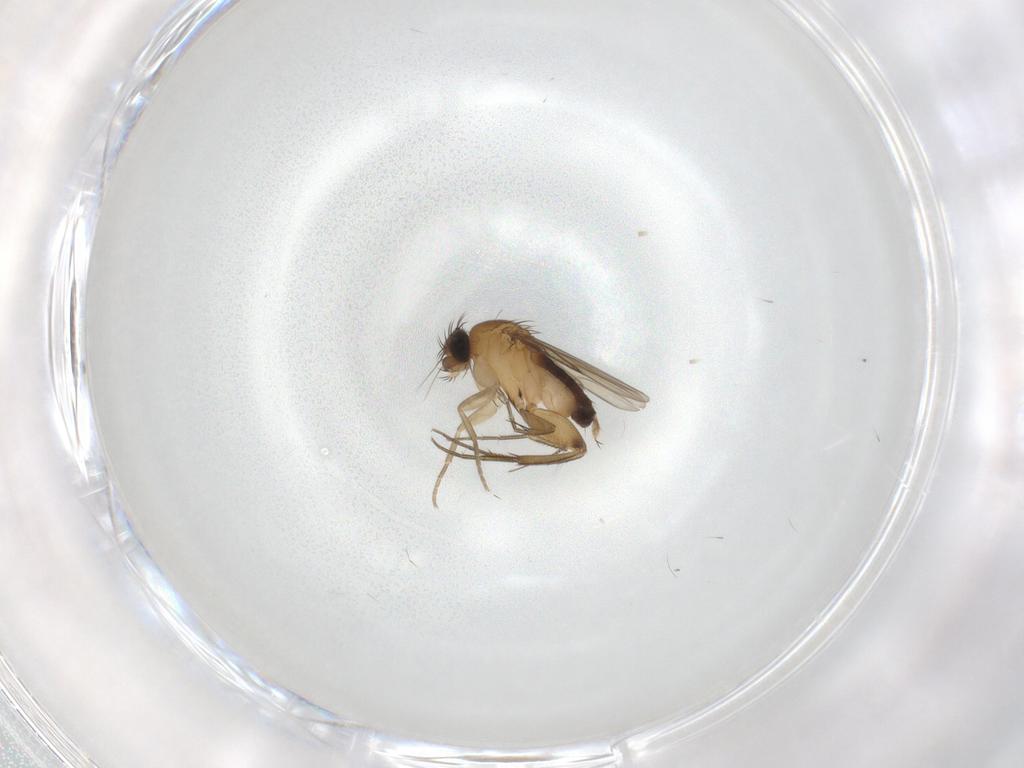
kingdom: Animalia
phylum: Arthropoda
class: Insecta
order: Diptera
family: Phoridae
